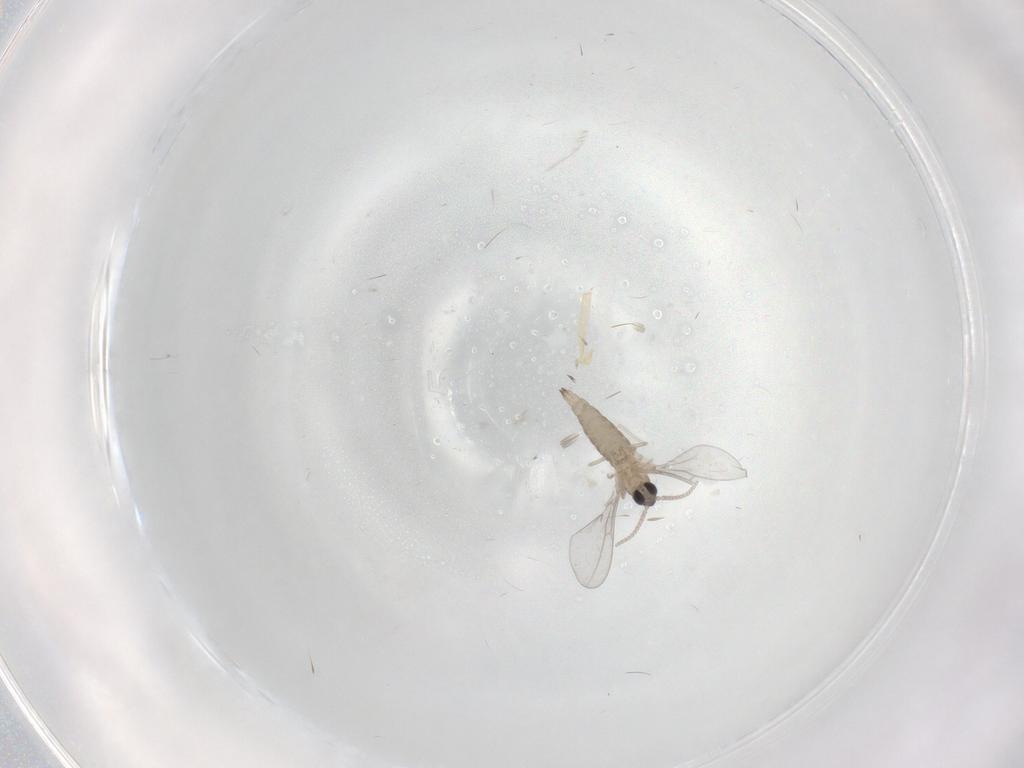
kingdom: Animalia
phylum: Arthropoda
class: Insecta
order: Diptera
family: Cecidomyiidae
